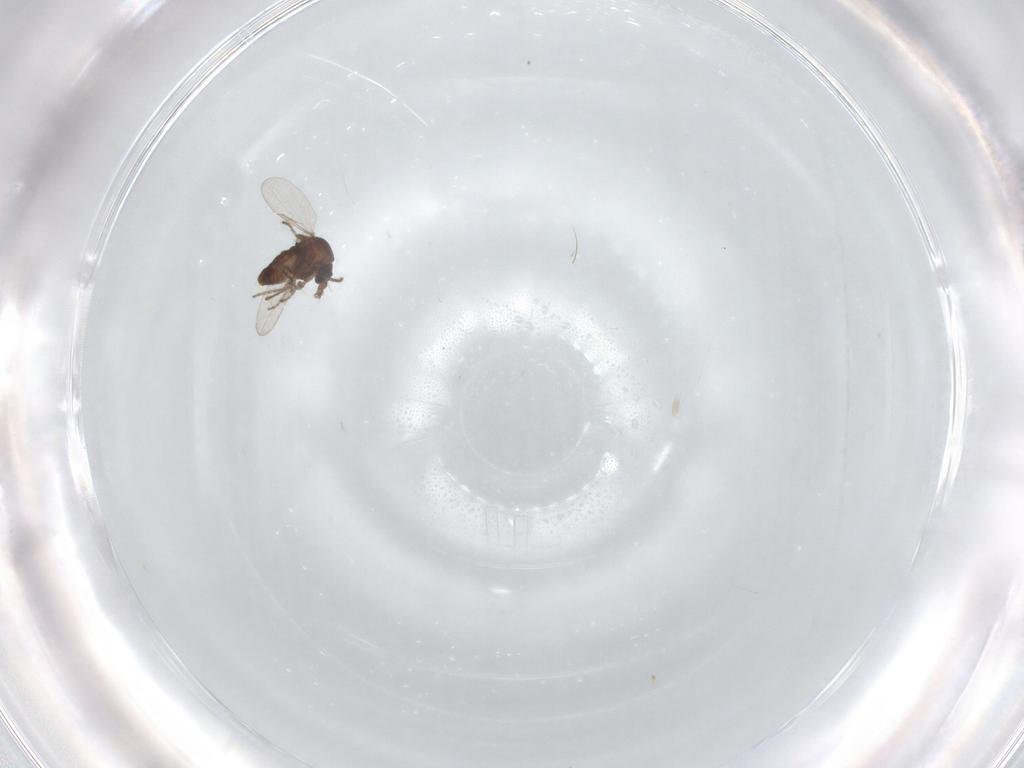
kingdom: Animalia
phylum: Arthropoda
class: Insecta
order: Diptera
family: Ceratopogonidae
